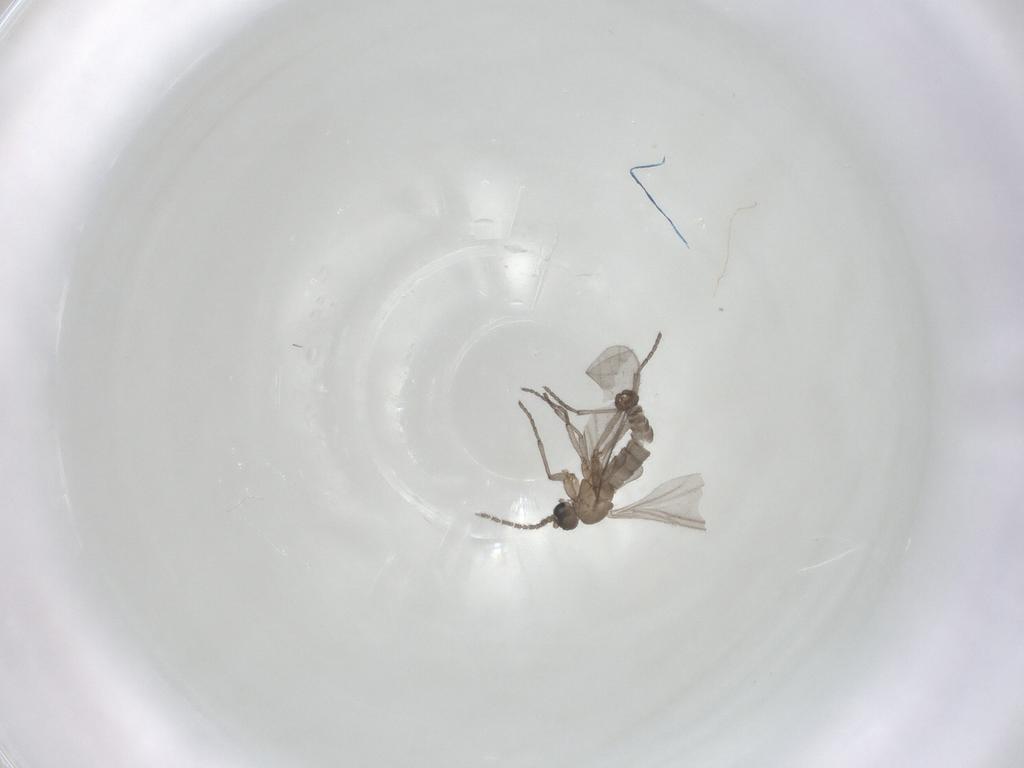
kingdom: Animalia
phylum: Arthropoda
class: Insecta
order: Diptera
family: Sciaridae
